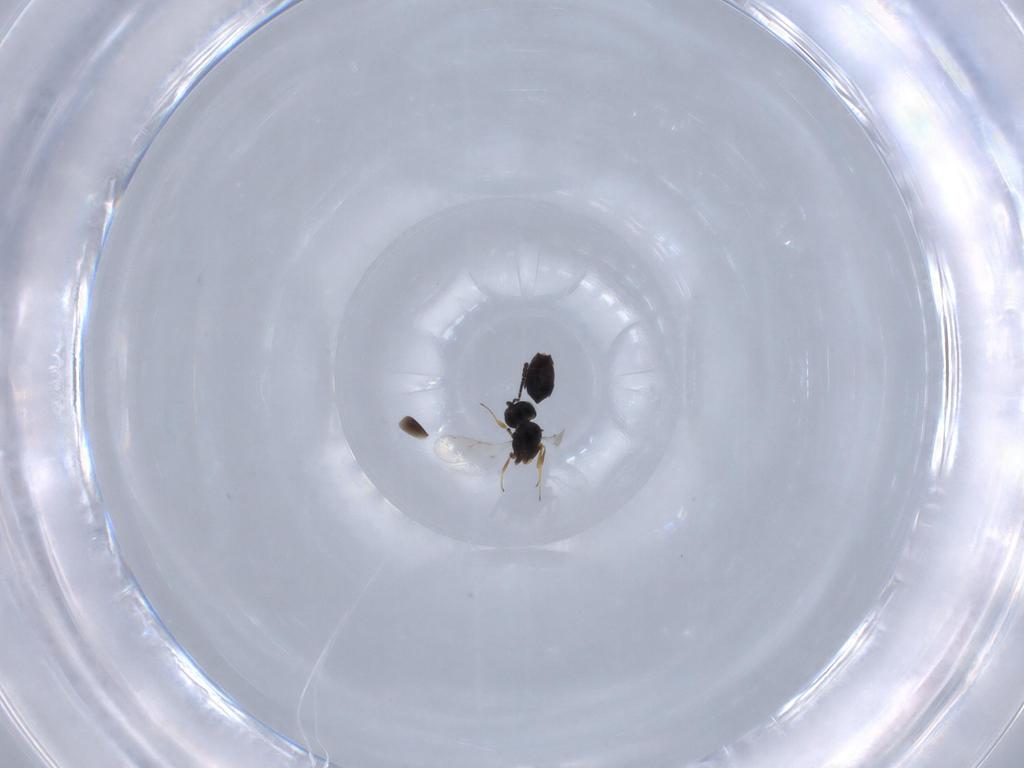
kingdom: Animalia
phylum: Arthropoda
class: Insecta
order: Hymenoptera
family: Scelionidae
